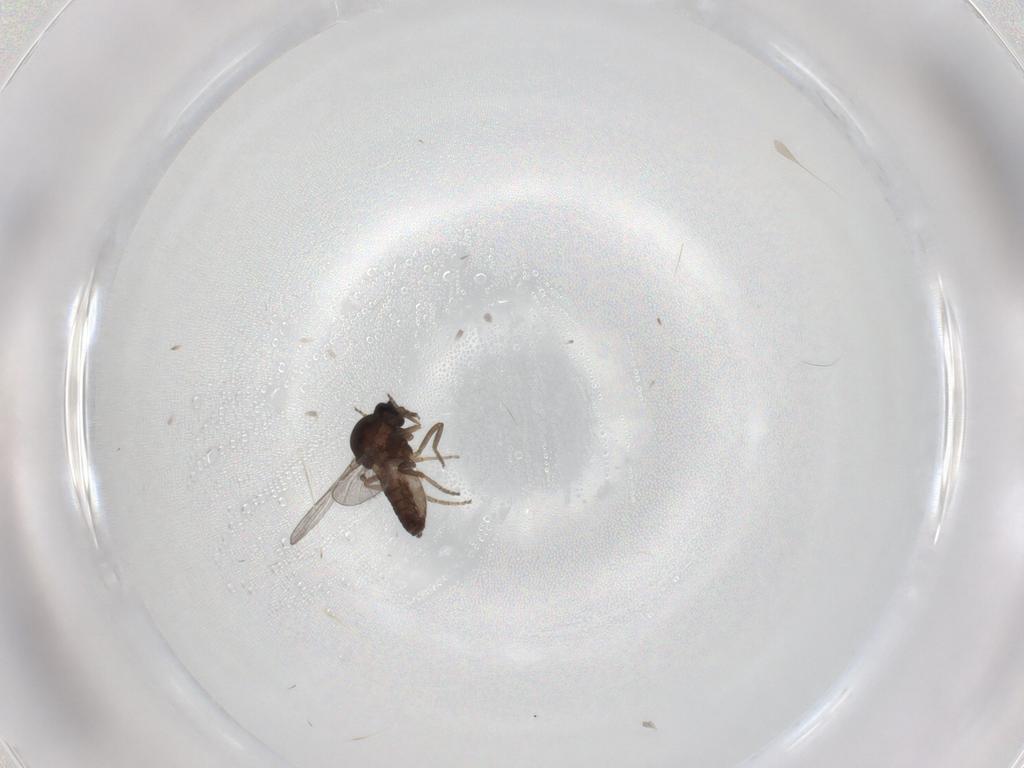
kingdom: Animalia
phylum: Arthropoda
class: Insecta
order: Diptera
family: Ceratopogonidae
